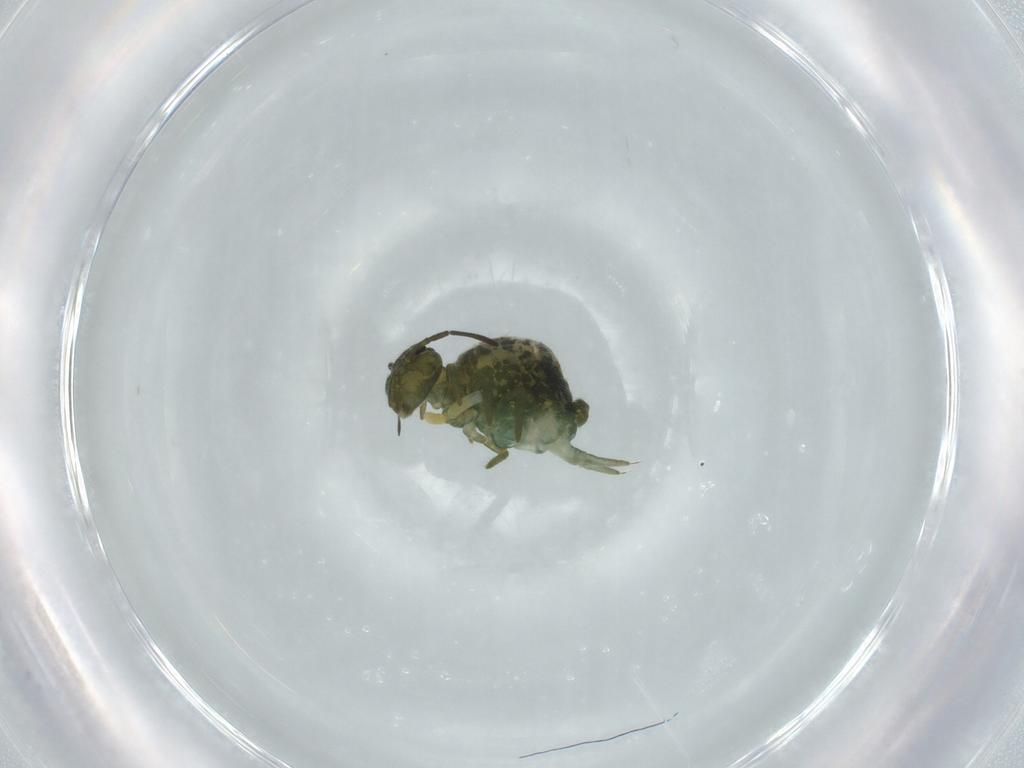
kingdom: Animalia
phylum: Arthropoda
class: Collembola
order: Symphypleona
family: Sminthuridae
